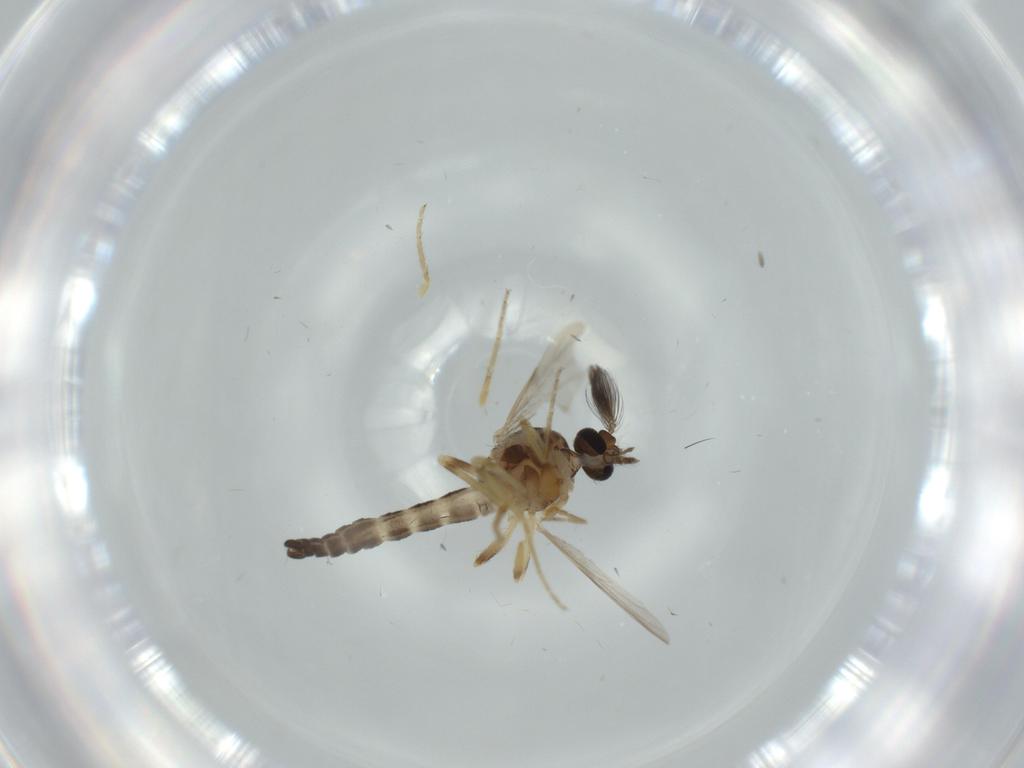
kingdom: Animalia
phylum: Arthropoda
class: Insecta
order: Diptera
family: Ceratopogonidae
